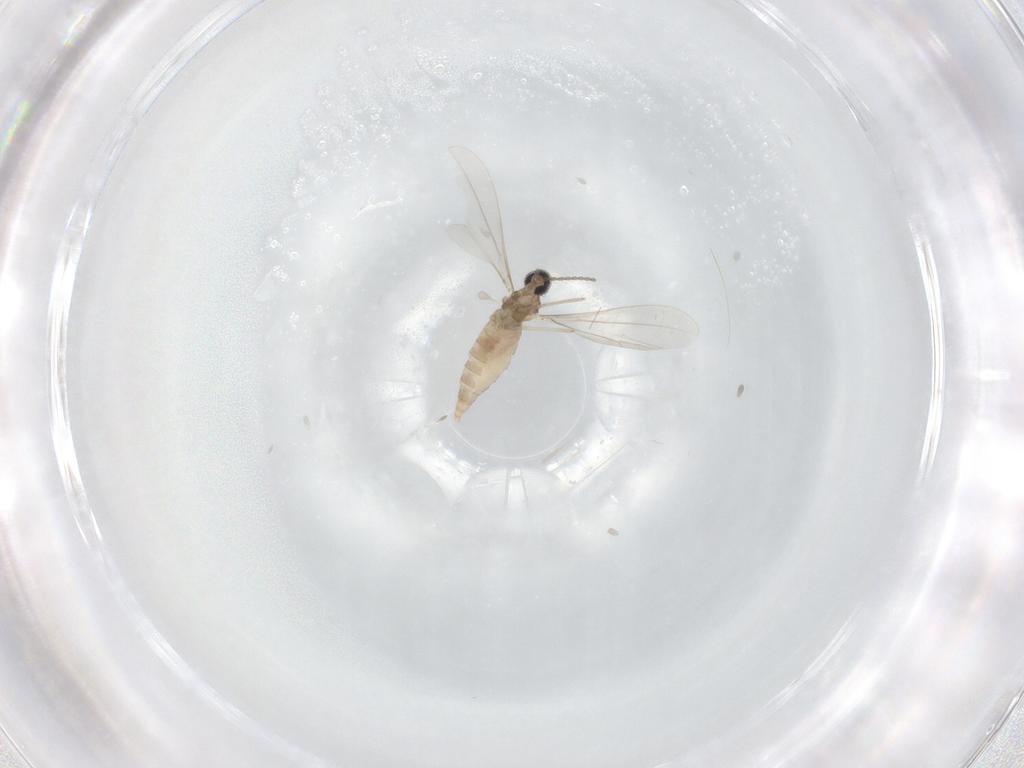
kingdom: Animalia
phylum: Arthropoda
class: Insecta
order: Diptera
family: Cecidomyiidae
